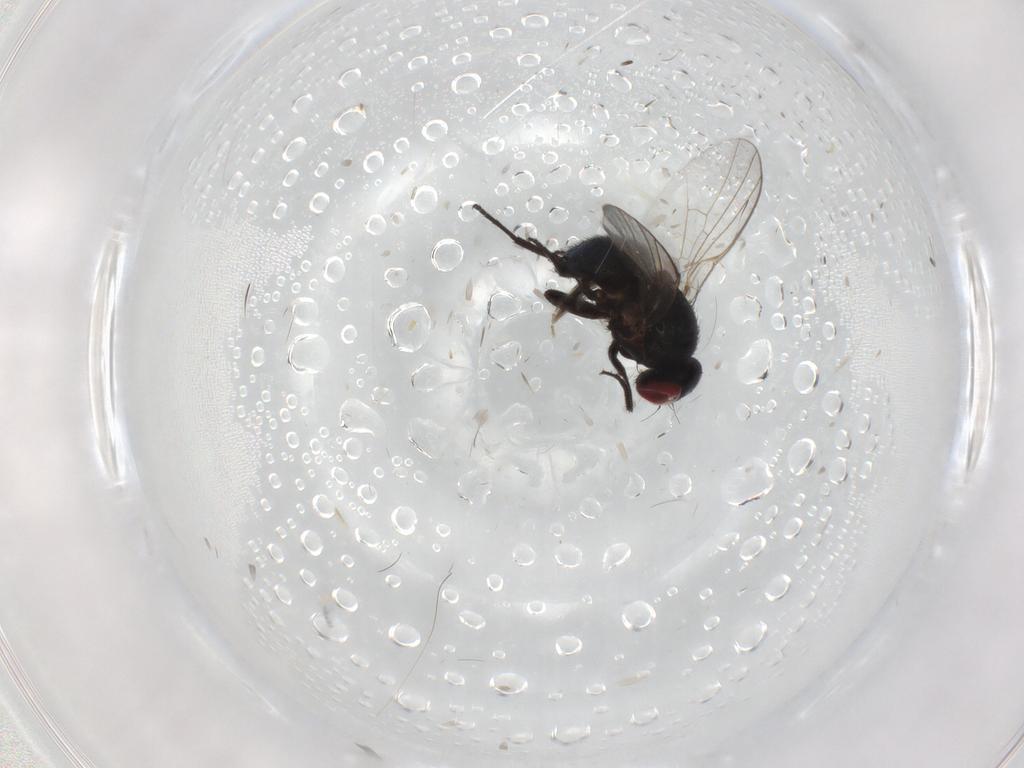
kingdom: Animalia
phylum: Arthropoda
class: Insecta
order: Diptera
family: Agromyzidae
